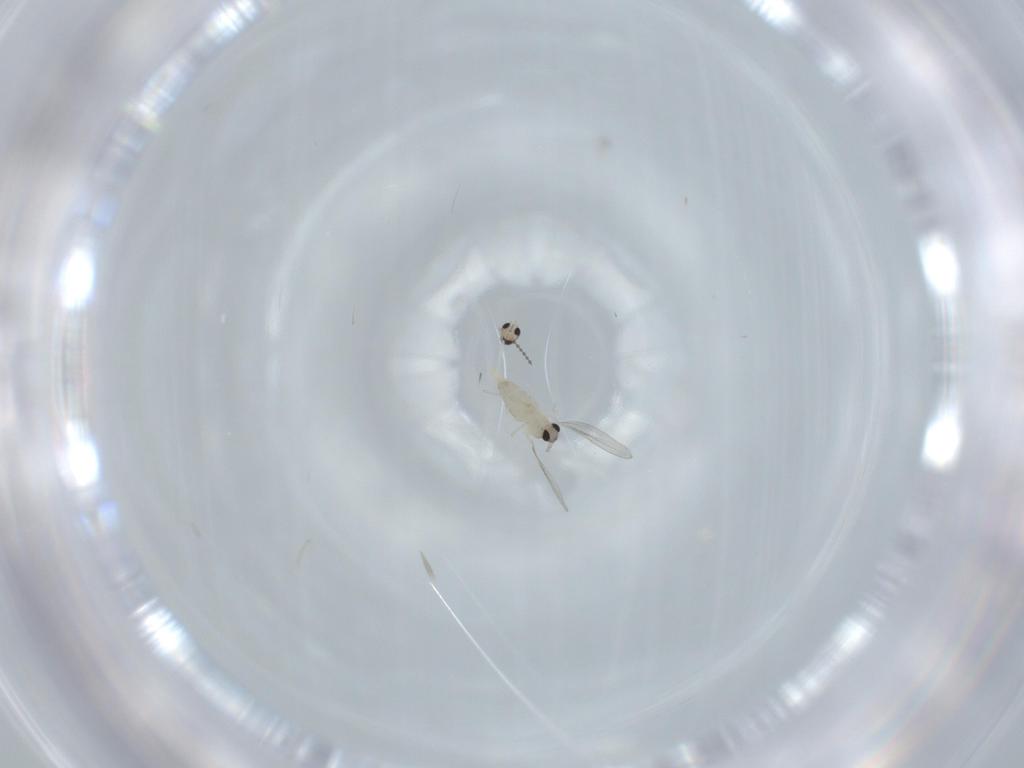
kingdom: Animalia
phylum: Arthropoda
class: Insecta
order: Diptera
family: Cecidomyiidae
